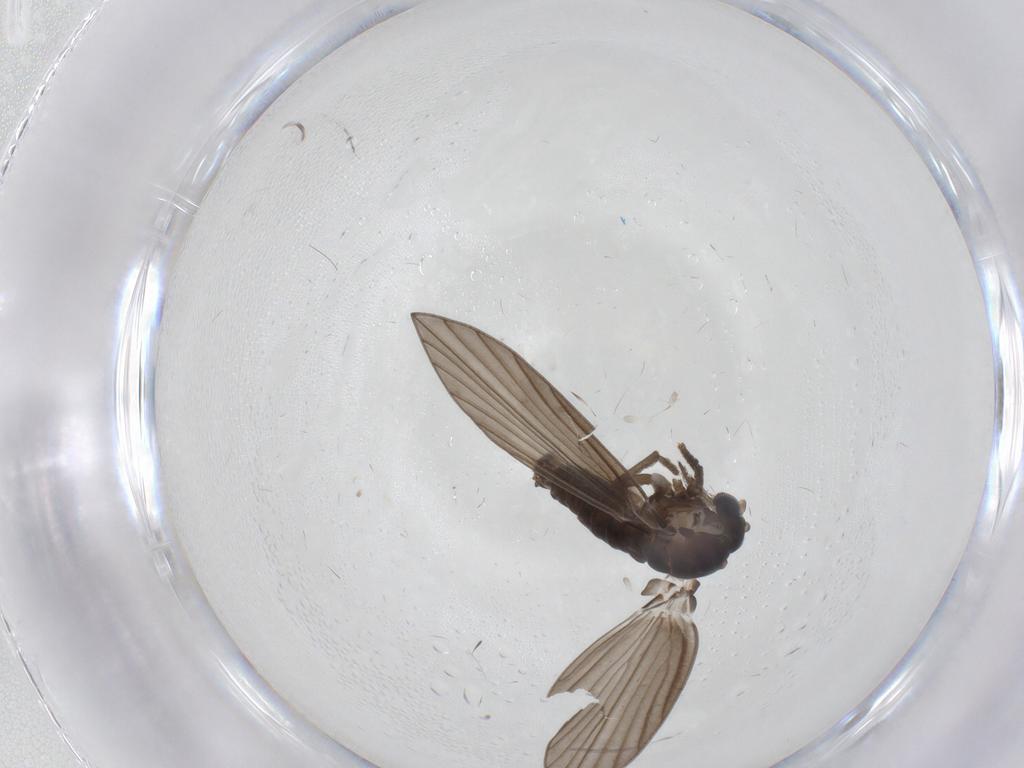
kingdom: Animalia
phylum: Arthropoda
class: Insecta
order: Diptera
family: Psychodidae
